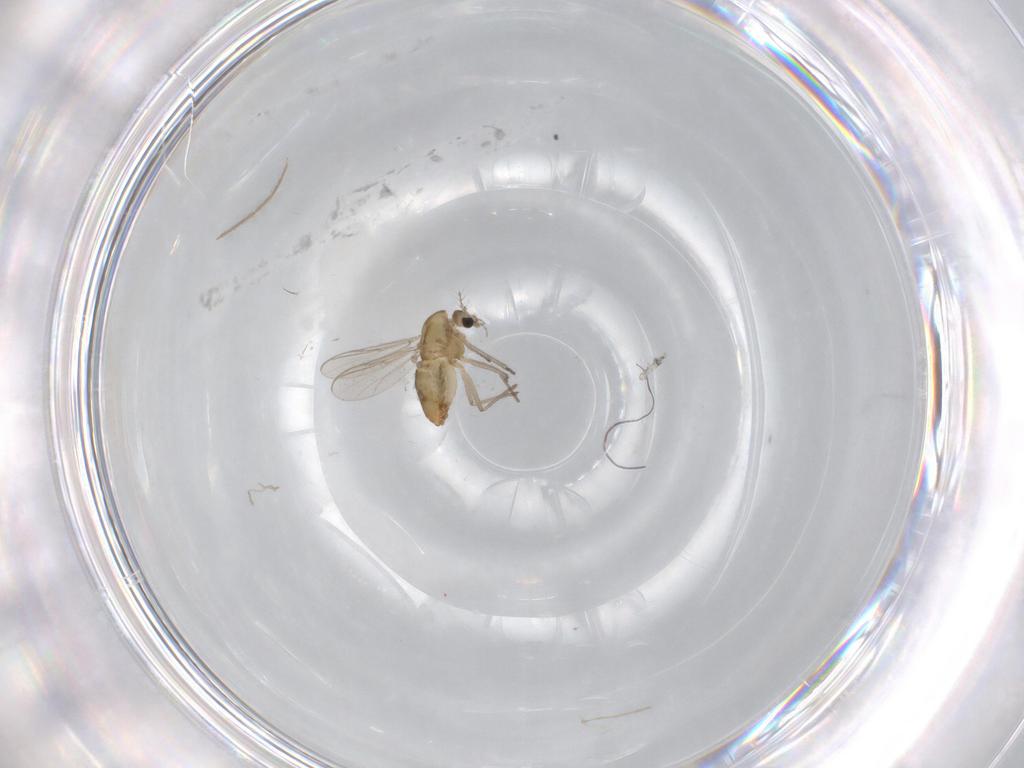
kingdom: Animalia
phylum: Arthropoda
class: Insecta
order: Diptera
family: Chironomidae
